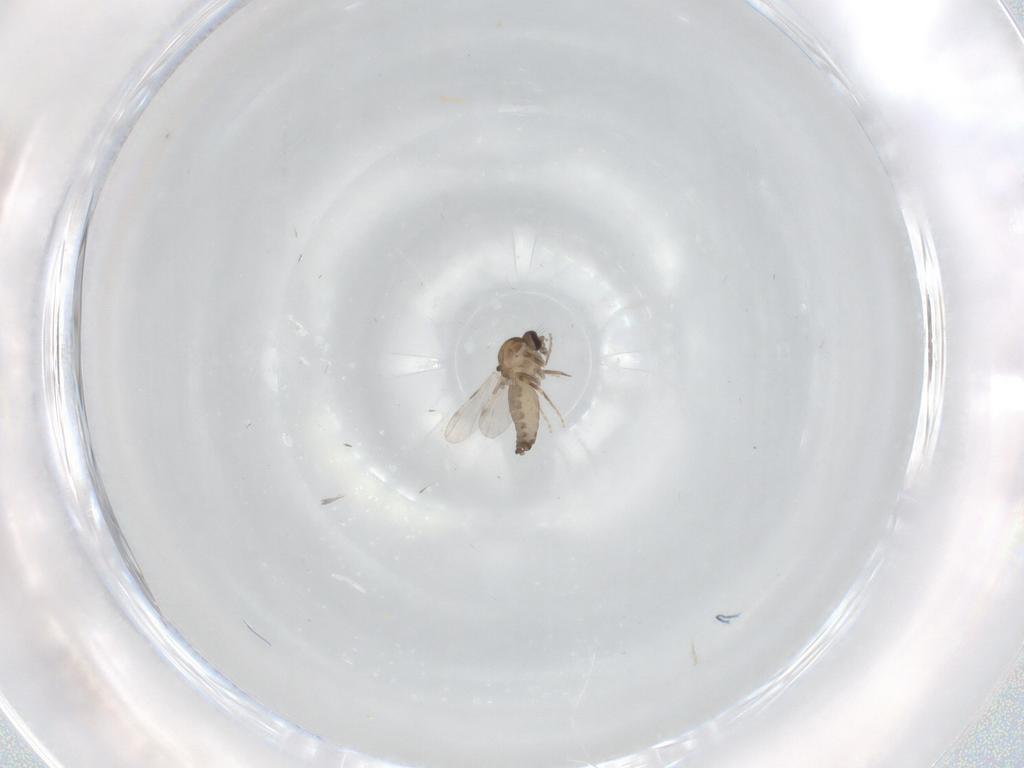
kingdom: Animalia
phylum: Arthropoda
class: Insecta
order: Diptera
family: Ceratopogonidae
